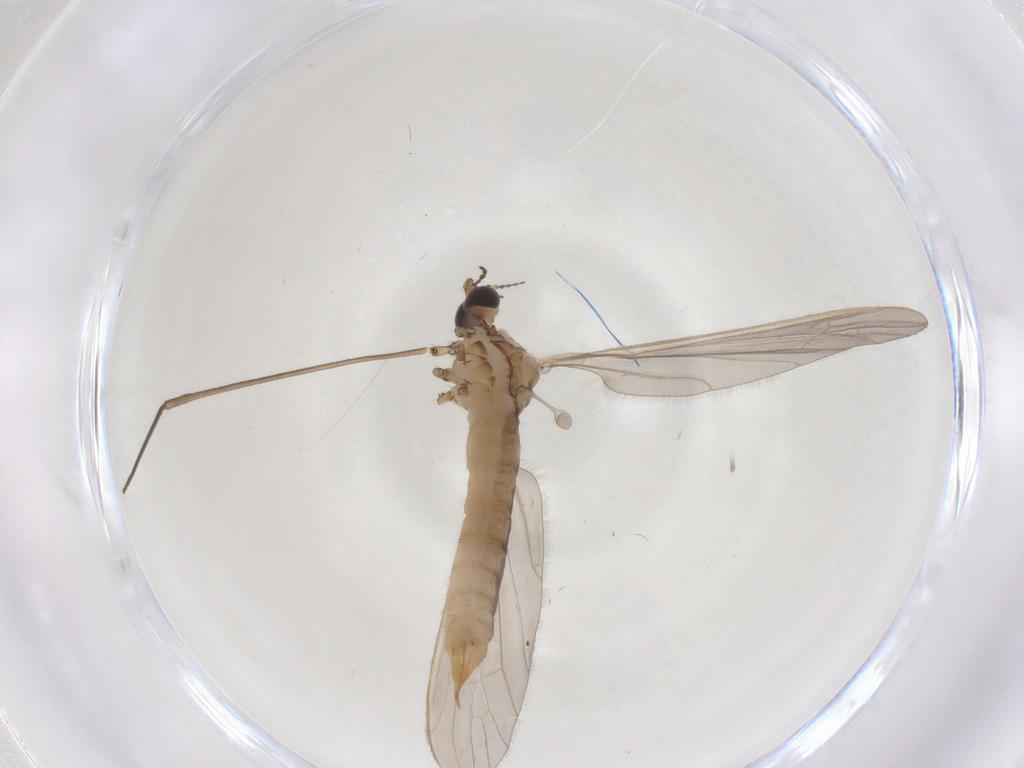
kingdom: Animalia
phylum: Arthropoda
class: Insecta
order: Diptera
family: Limoniidae
